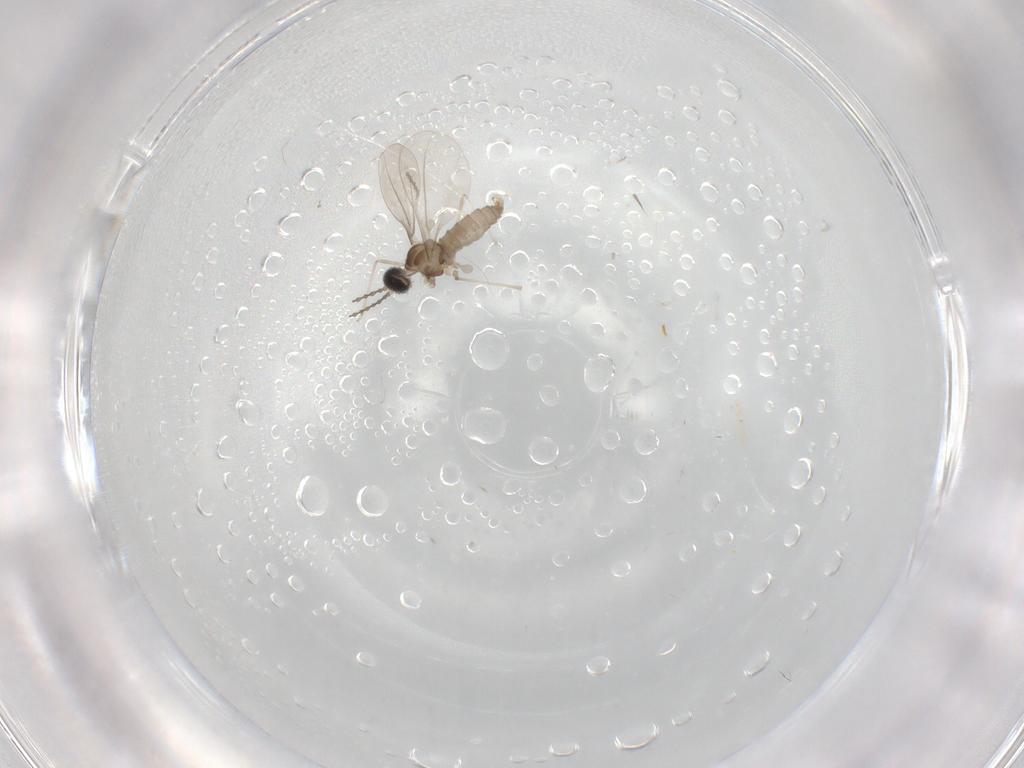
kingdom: Animalia
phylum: Arthropoda
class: Insecta
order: Diptera
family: Cecidomyiidae
